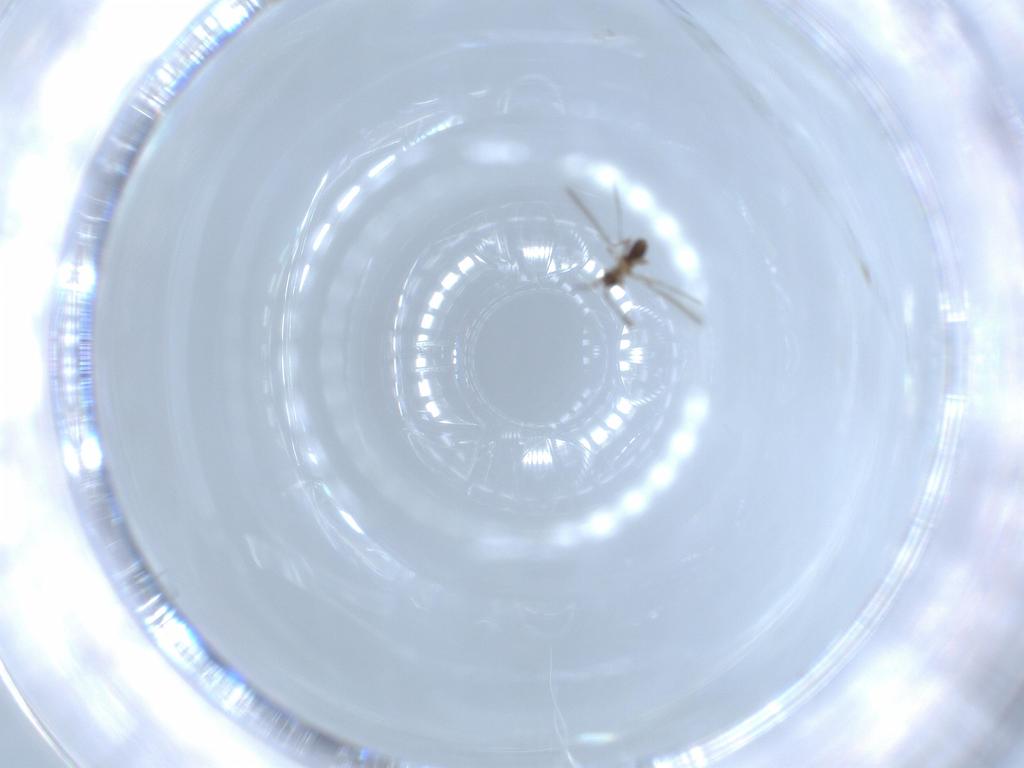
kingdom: Animalia
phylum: Arthropoda
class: Insecta
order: Hymenoptera
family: Formicidae
